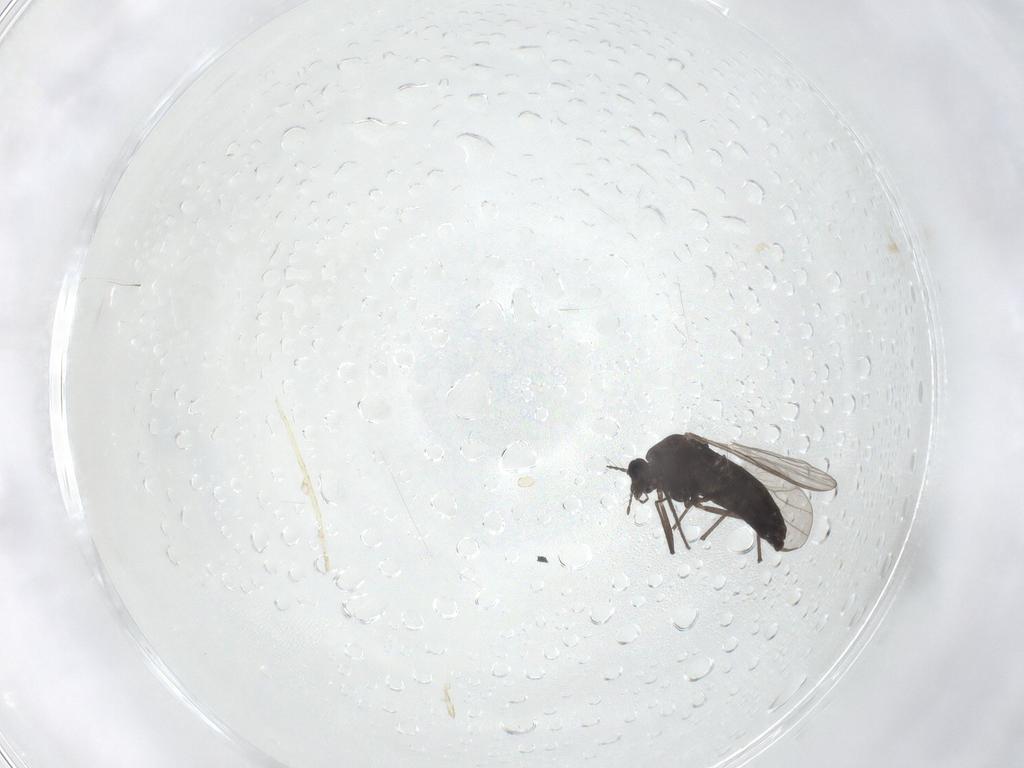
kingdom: Animalia
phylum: Arthropoda
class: Insecta
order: Diptera
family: Chironomidae
